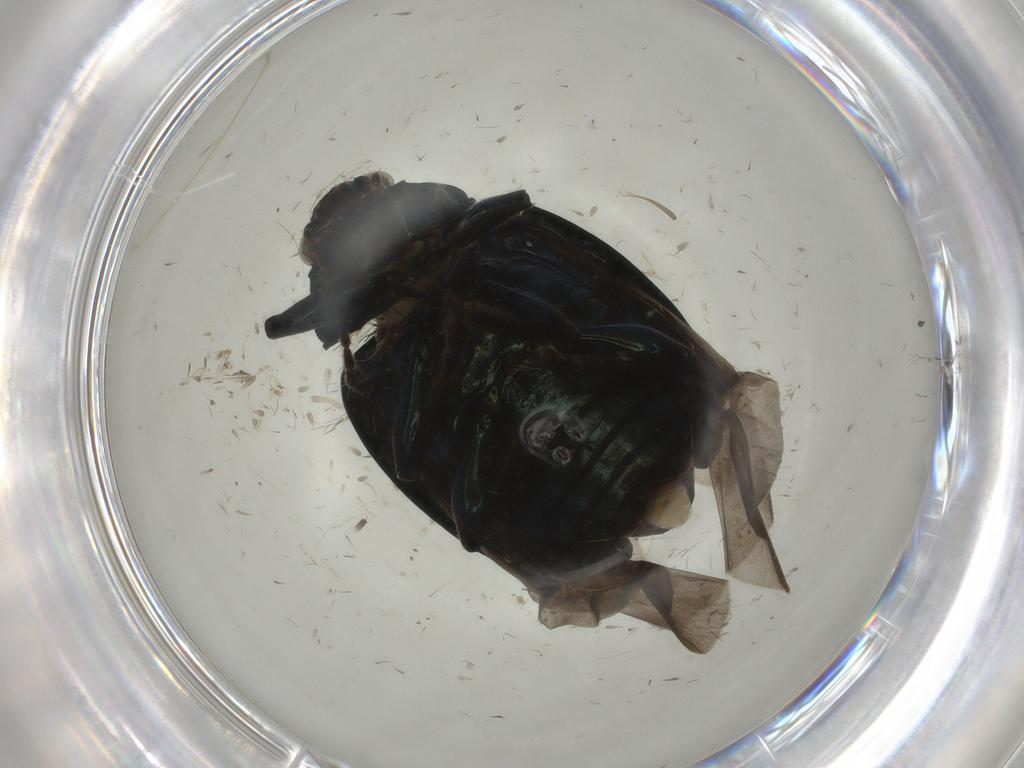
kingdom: Animalia
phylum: Arthropoda
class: Insecta
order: Coleoptera
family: Chrysomelidae
